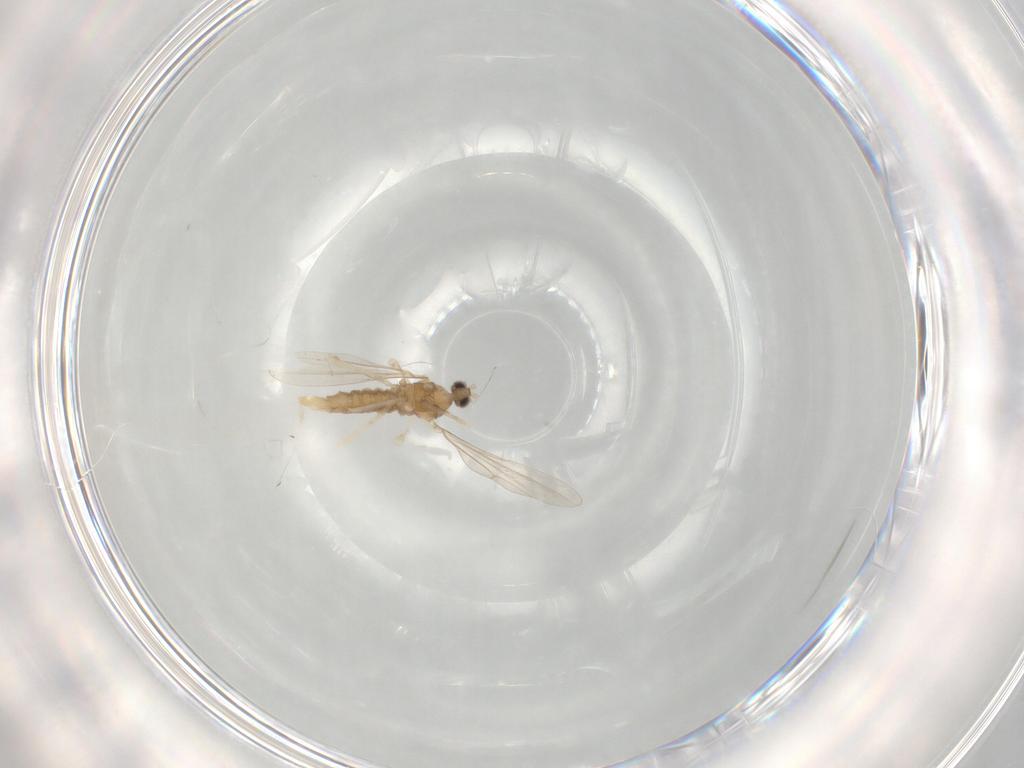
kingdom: Animalia
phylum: Arthropoda
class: Insecta
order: Diptera
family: Cecidomyiidae
